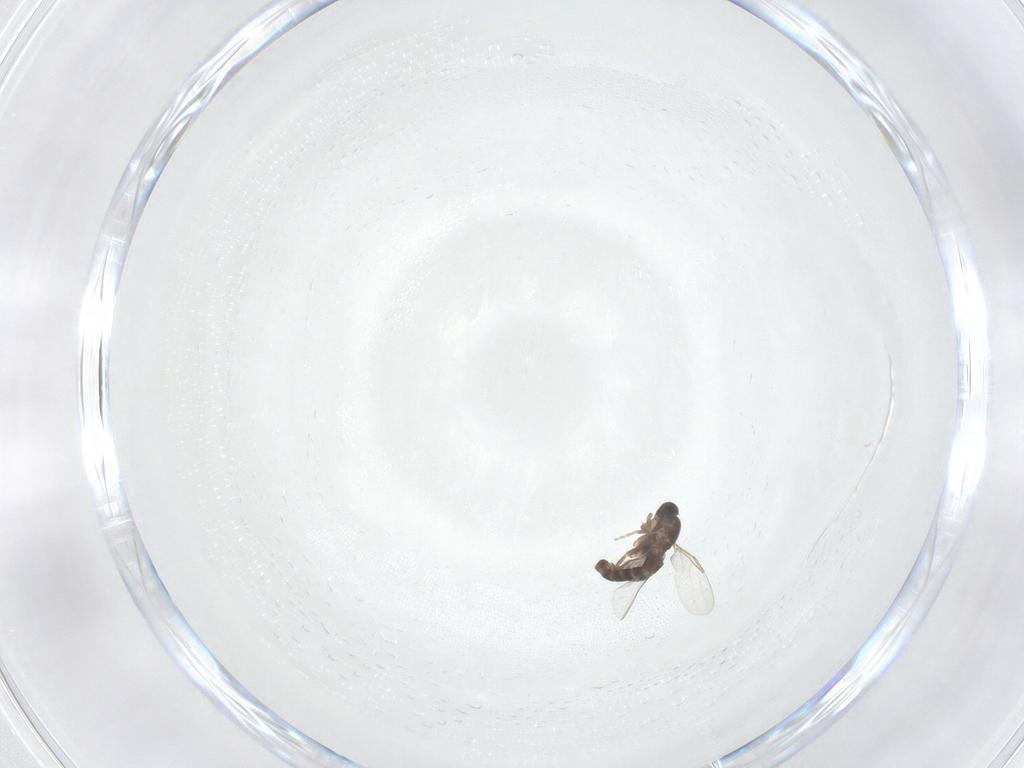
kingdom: Animalia
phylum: Arthropoda
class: Insecta
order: Diptera
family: Phoridae
